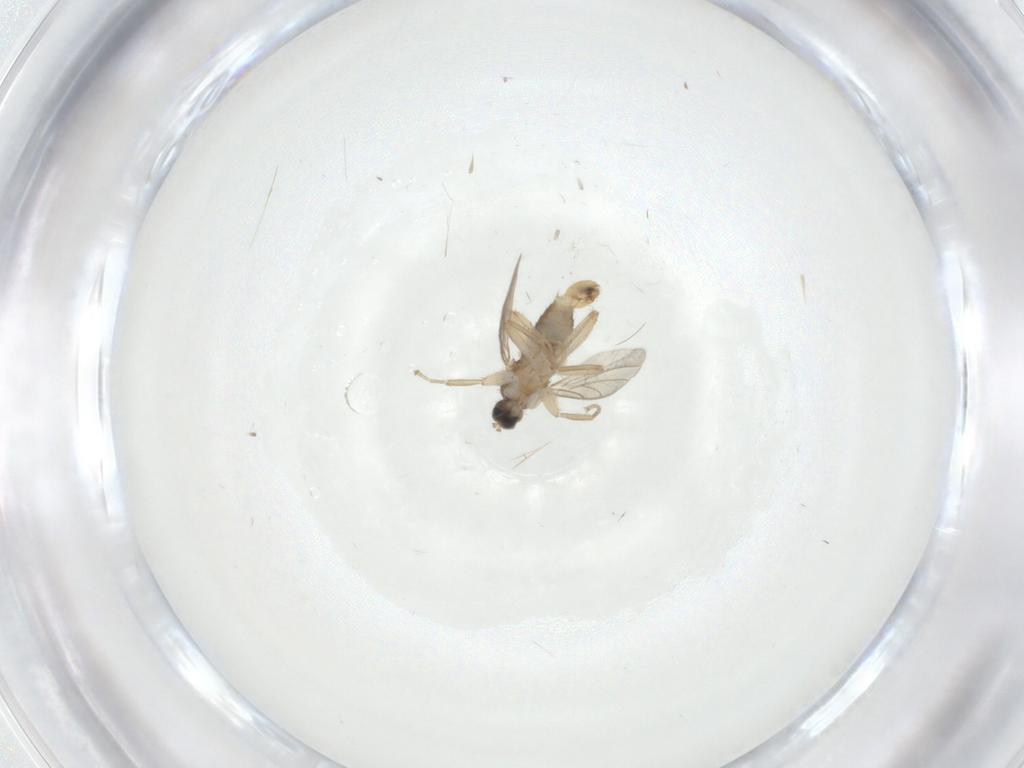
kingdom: Animalia
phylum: Arthropoda
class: Insecta
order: Diptera
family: Hybotidae
